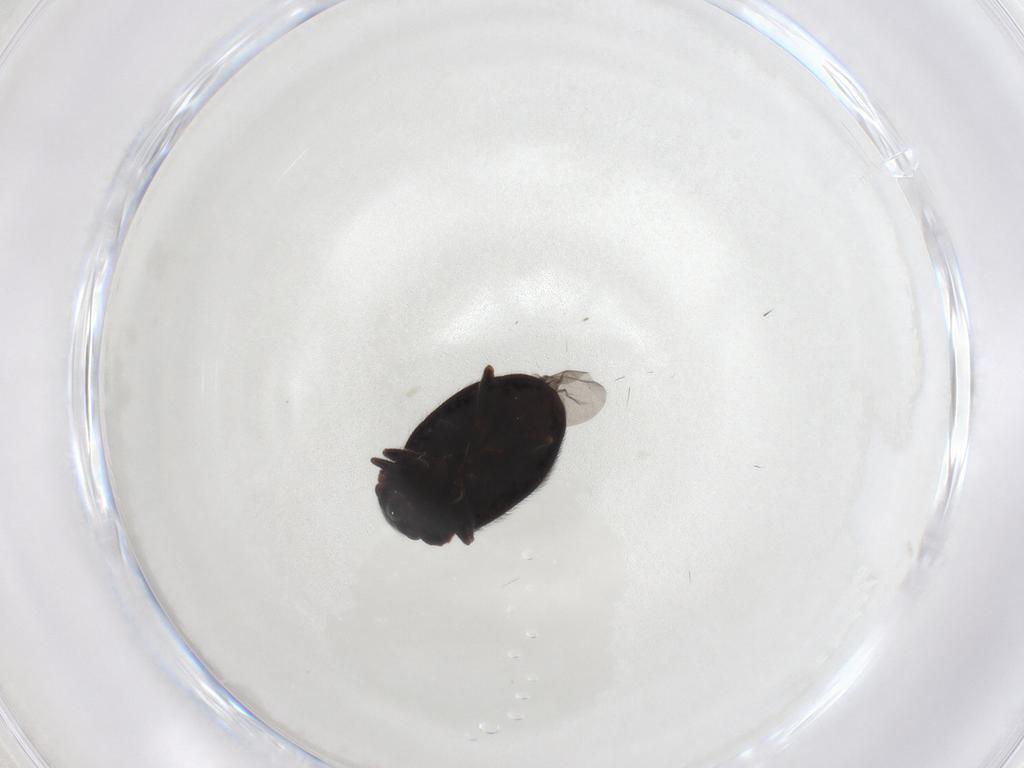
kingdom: Animalia
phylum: Arthropoda
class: Insecta
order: Coleoptera
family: Sphindidae
